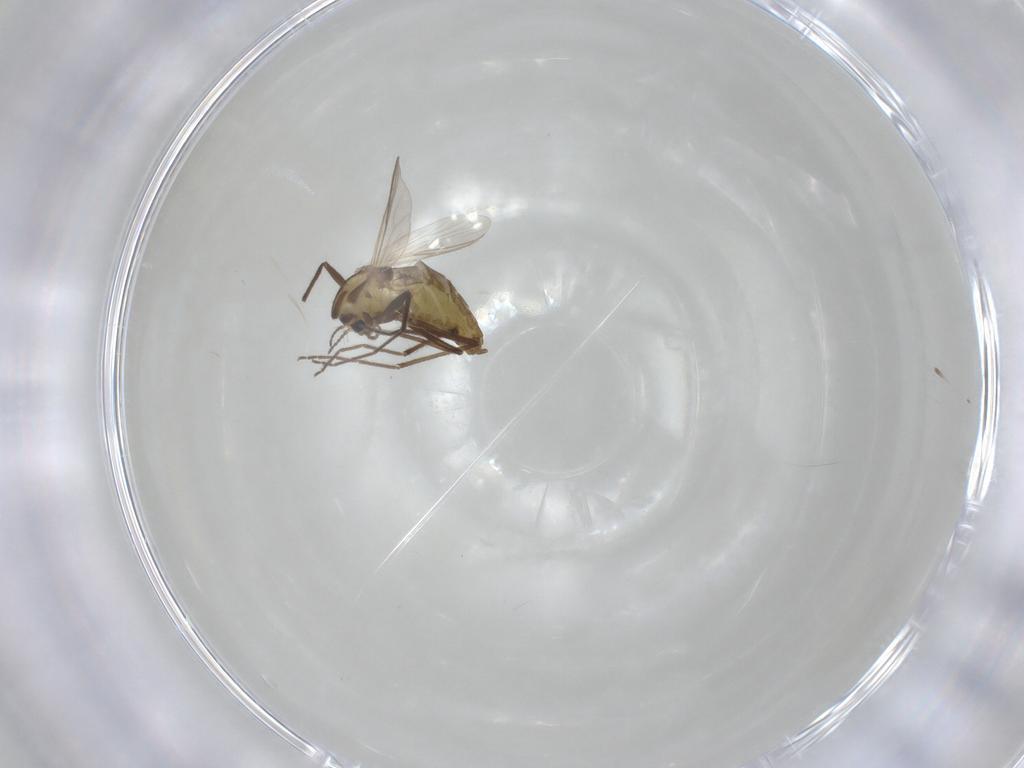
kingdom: Animalia
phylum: Arthropoda
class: Insecta
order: Diptera
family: Chironomidae
